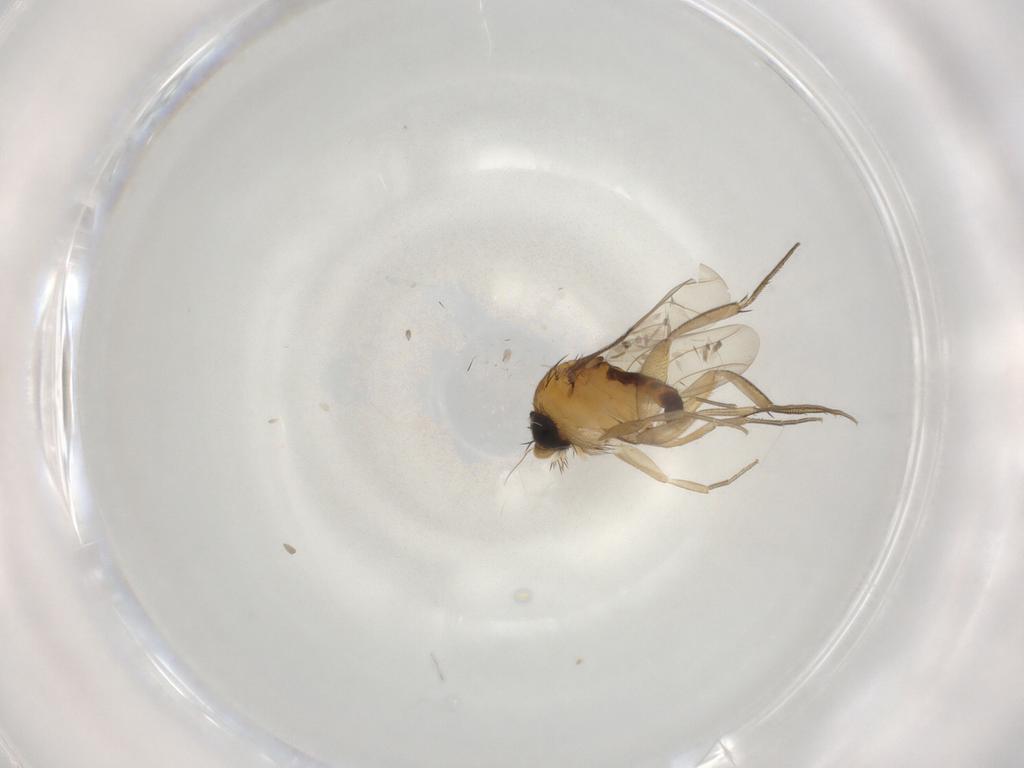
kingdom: Animalia
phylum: Arthropoda
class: Insecta
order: Diptera
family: Cecidomyiidae
